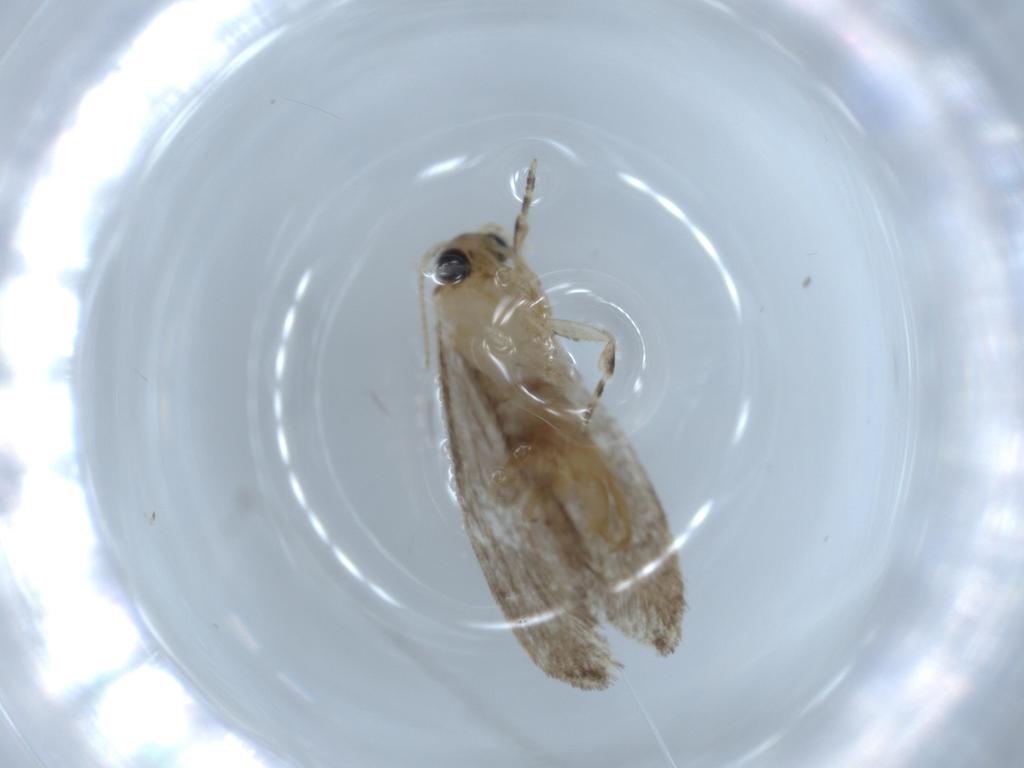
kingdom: Animalia
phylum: Arthropoda
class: Insecta
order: Lepidoptera
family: Tineidae
